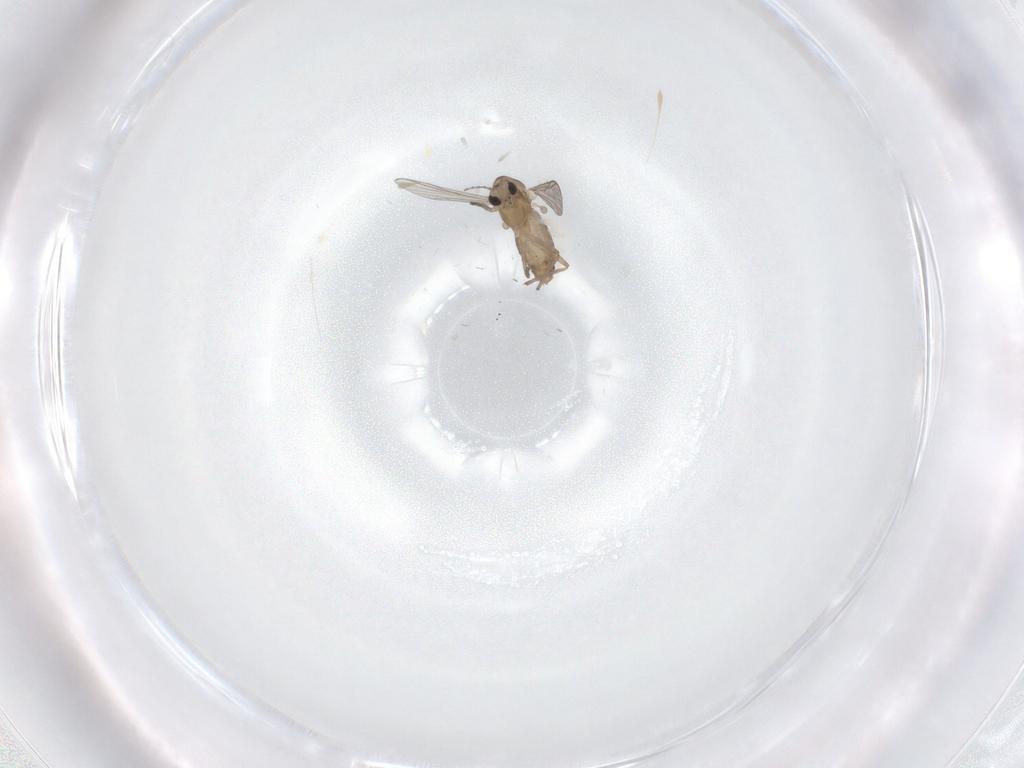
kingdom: Animalia
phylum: Arthropoda
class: Insecta
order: Diptera
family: Chironomidae
